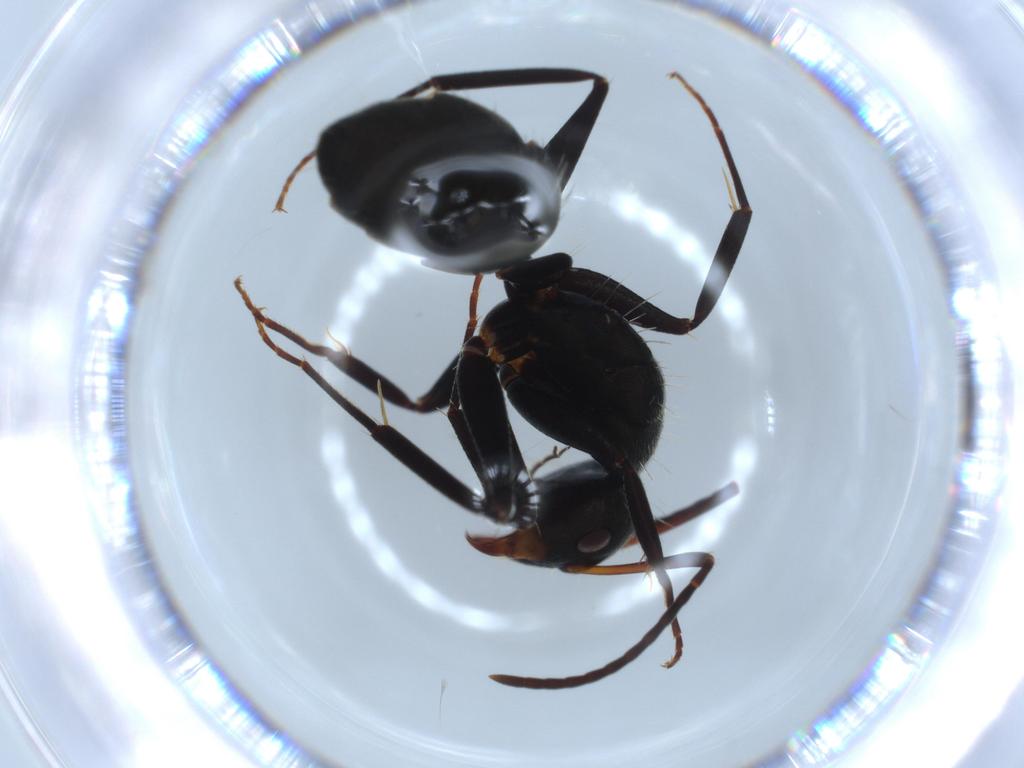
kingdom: Animalia
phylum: Arthropoda
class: Insecta
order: Hymenoptera
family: Formicidae
